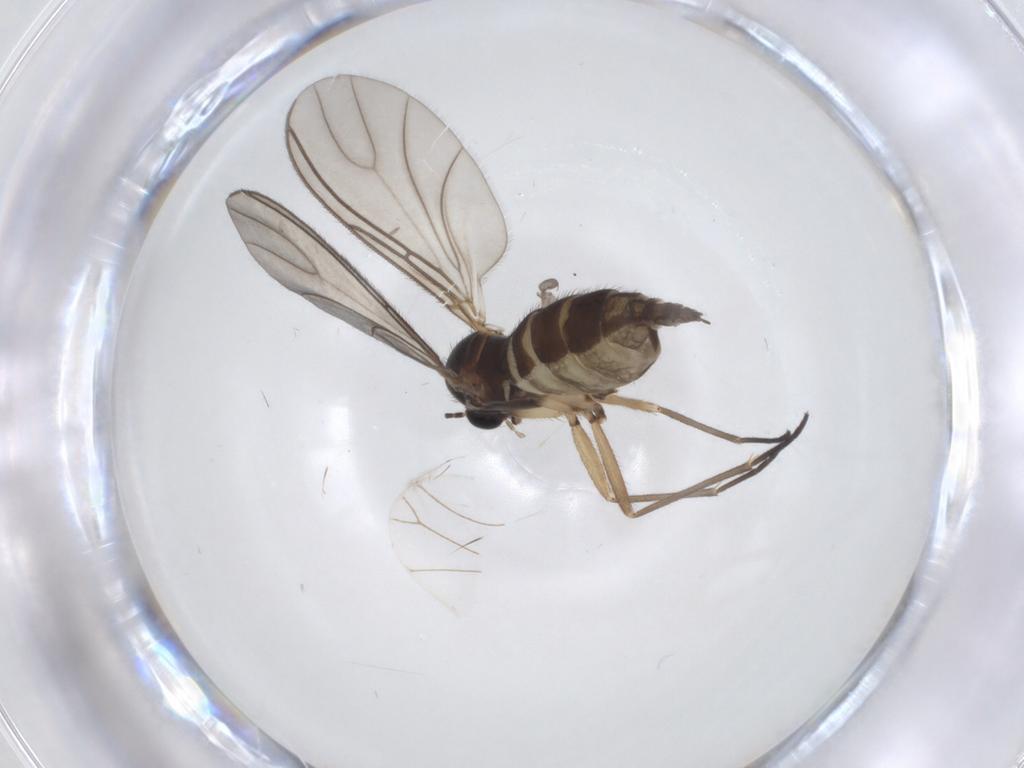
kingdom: Animalia
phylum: Arthropoda
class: Insecta
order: Diptera
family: Sciaridae
